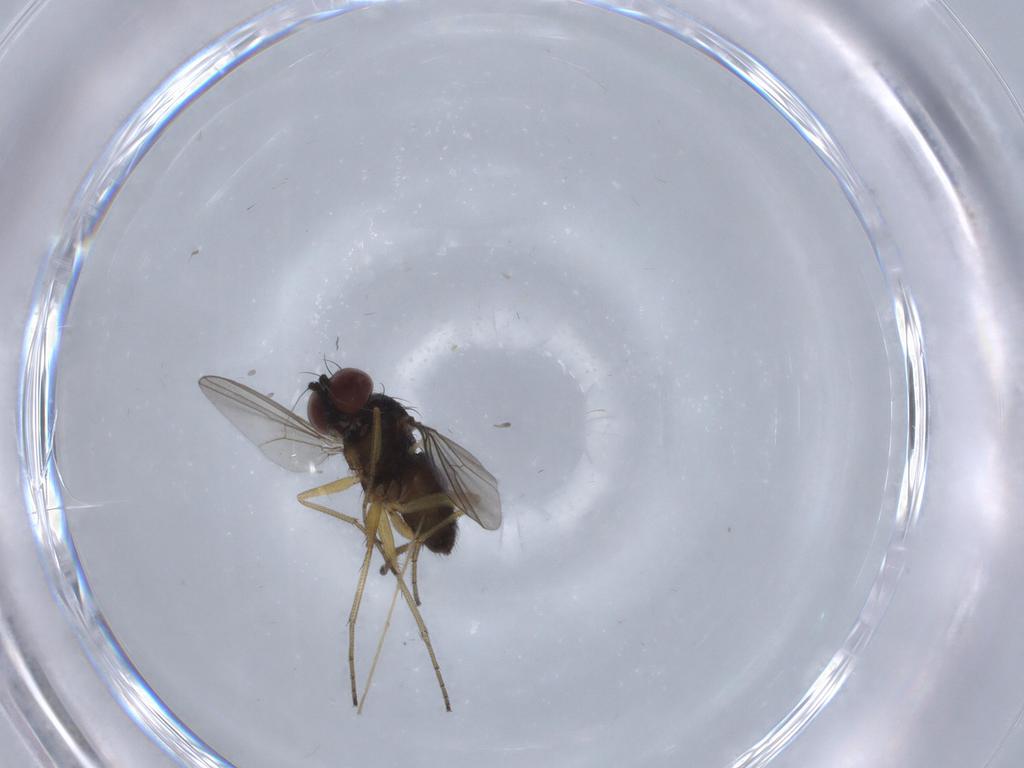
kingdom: Animalia
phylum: Arthropoda
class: Insecta
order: Diptera
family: Dolichopodidae
